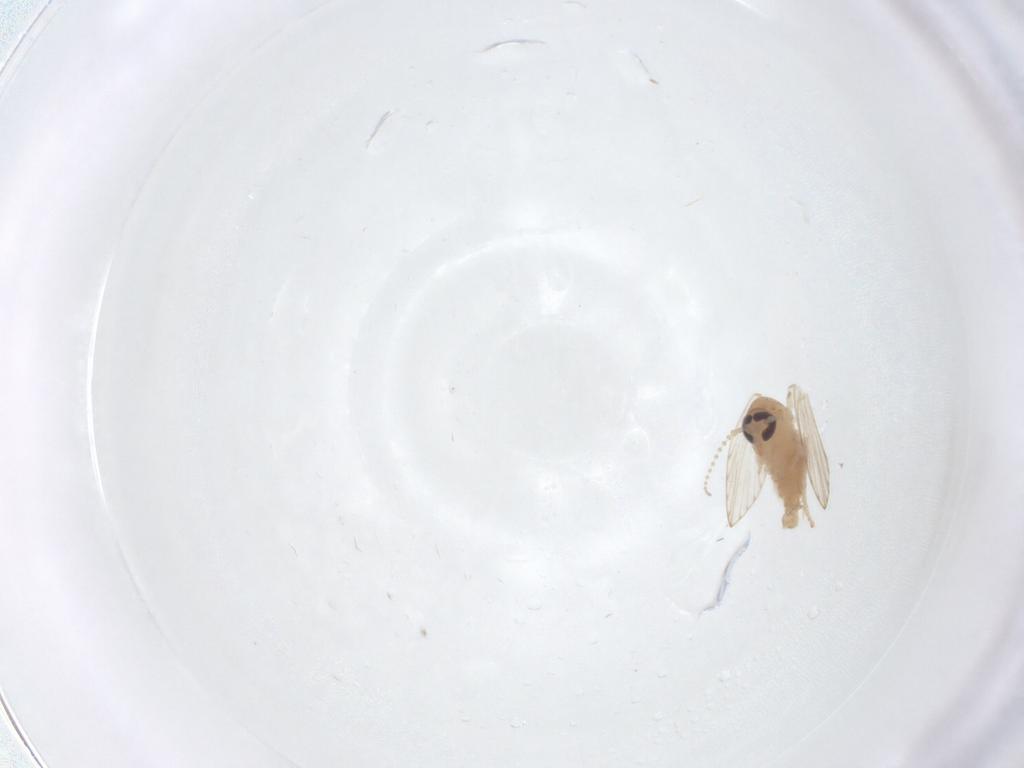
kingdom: Animalia
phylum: Arthropoda
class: Insecta
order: Diptera
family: Psychodidae
